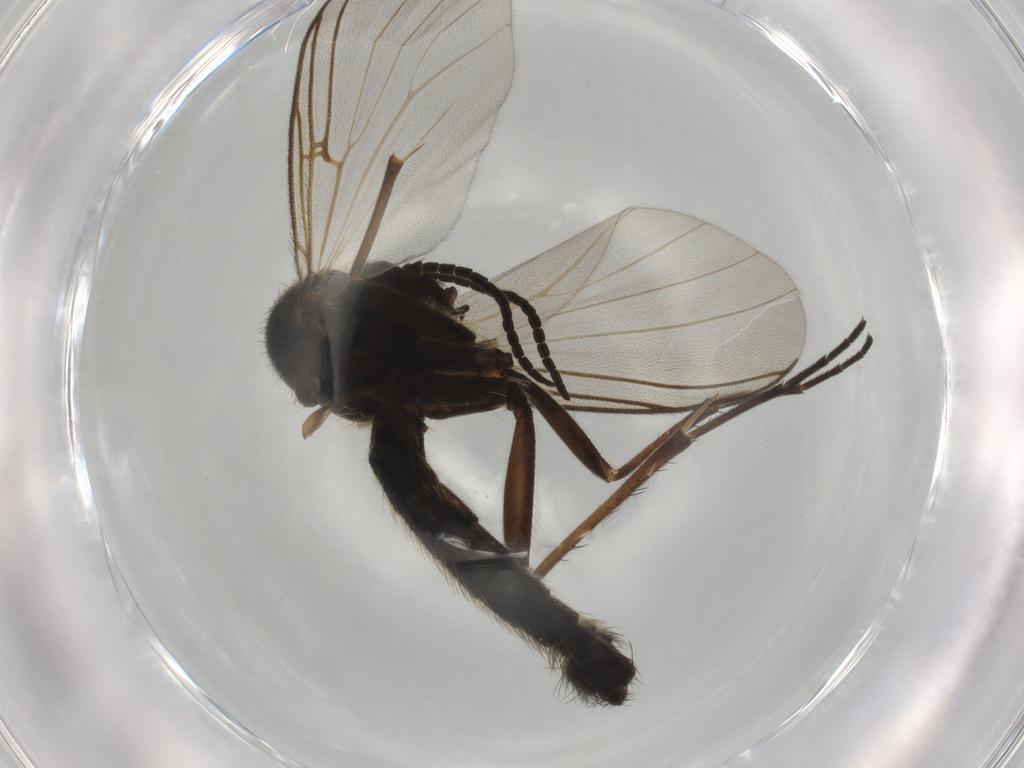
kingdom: Animalia
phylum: Arthropoda
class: Insecta
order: Diptera
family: Mycetophilidae
